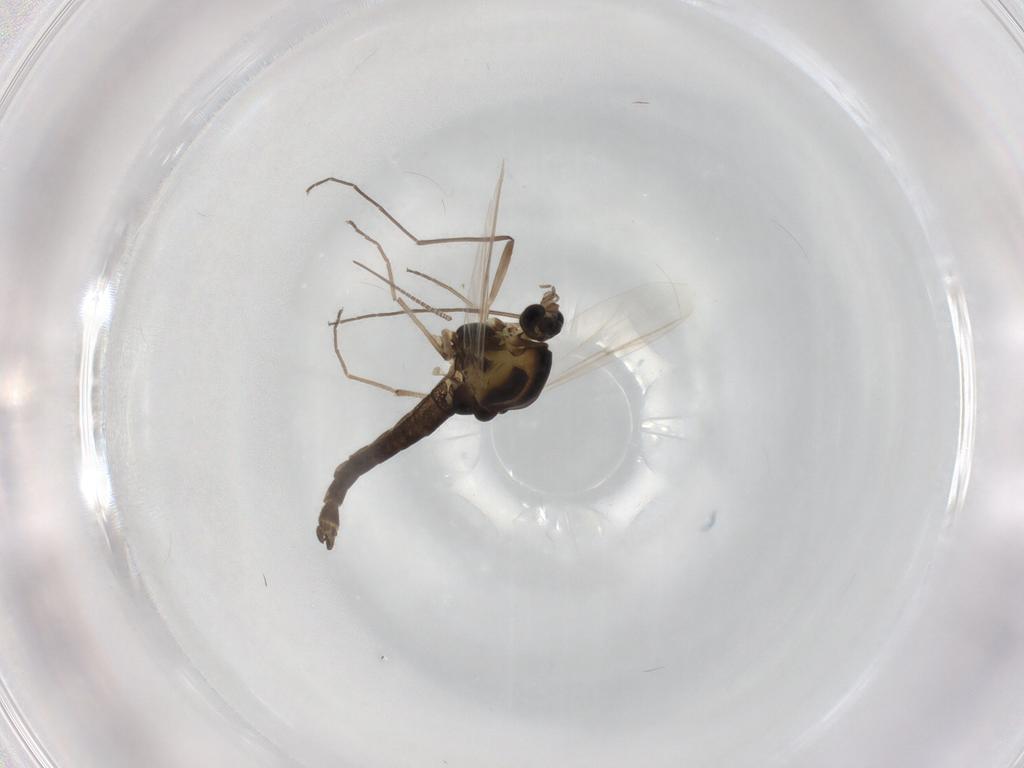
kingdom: Animalia
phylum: Arthropoda
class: Insecta
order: Diptera
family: Chironomidae
